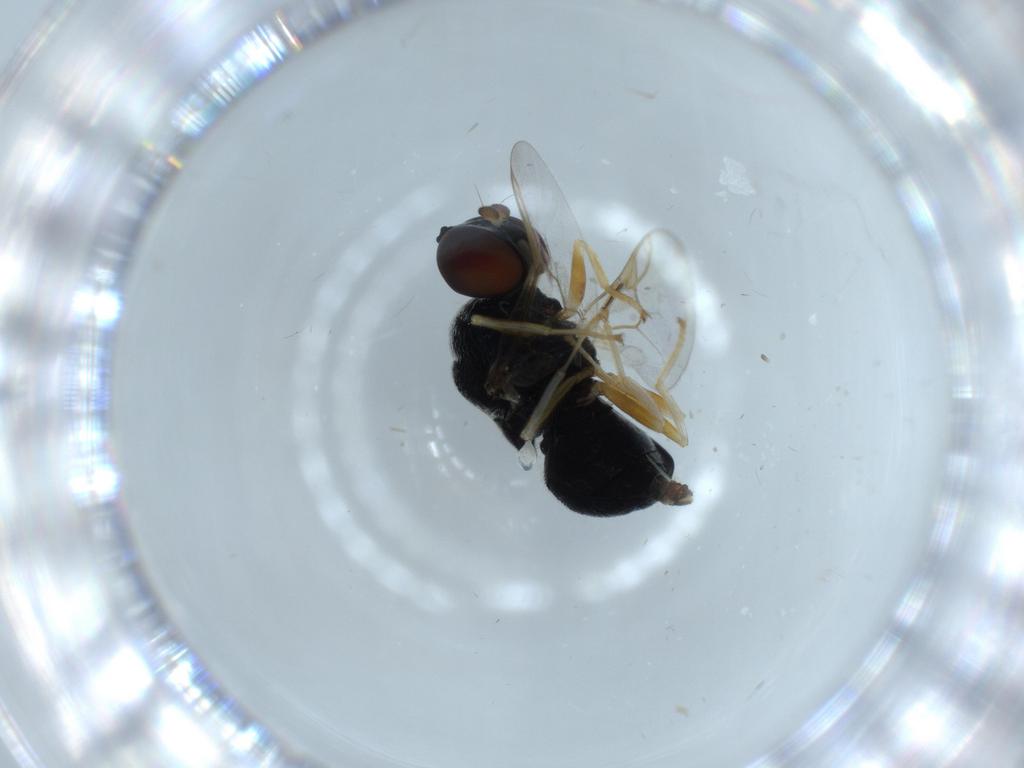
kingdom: Animalia
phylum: Arthropoda
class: Insecta
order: Diptera
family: Stratiomyidae
